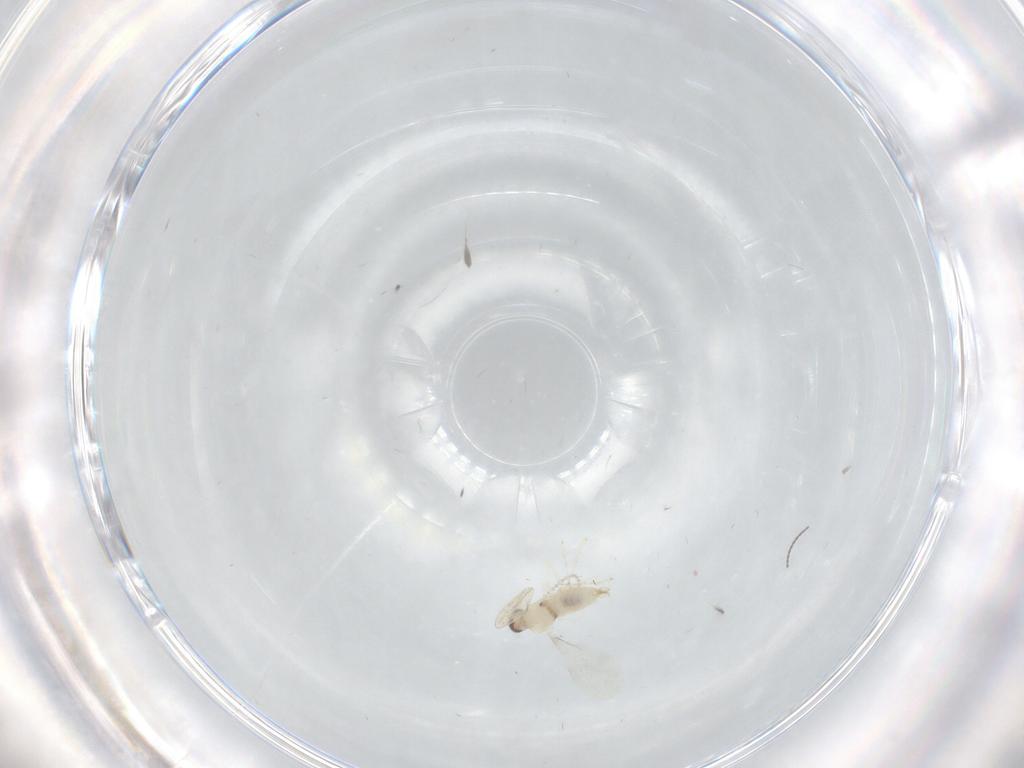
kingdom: Animalia
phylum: Arthropoda
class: Insecta
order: Diptera
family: Cecidomyiidae
